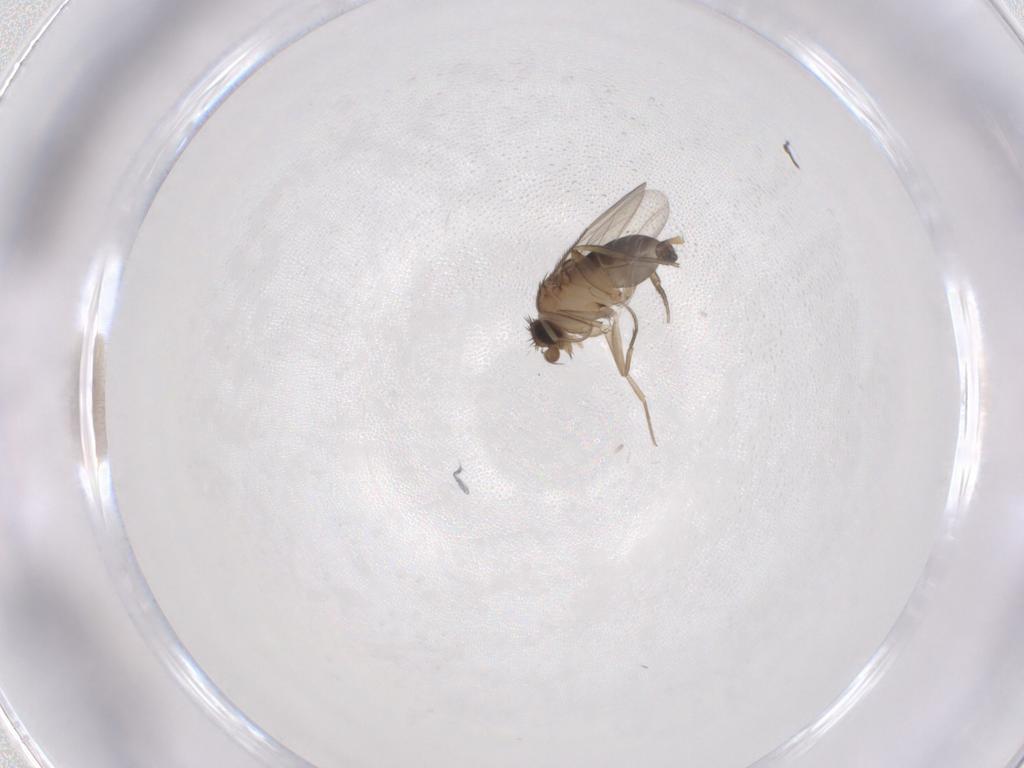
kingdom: Animalia
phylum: Arthropoda
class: Insecta
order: Diptera
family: Phoridae
